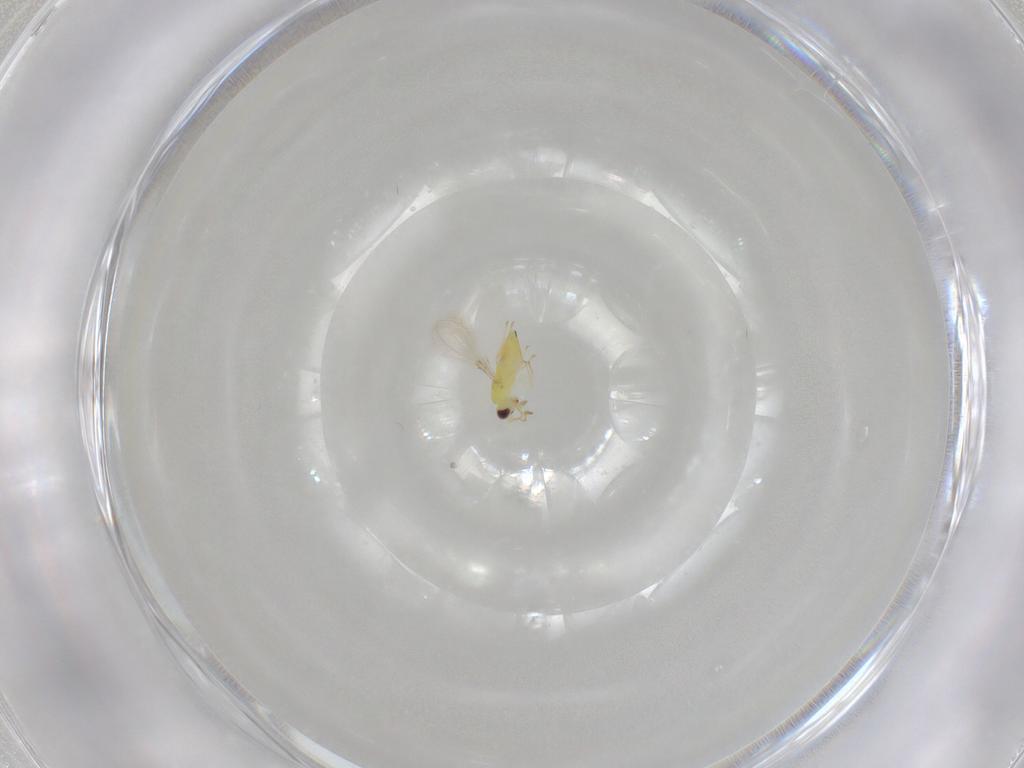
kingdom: Animalia
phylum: Arthropoda
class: Insecta
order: Hymenoptera
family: Mymaridae
